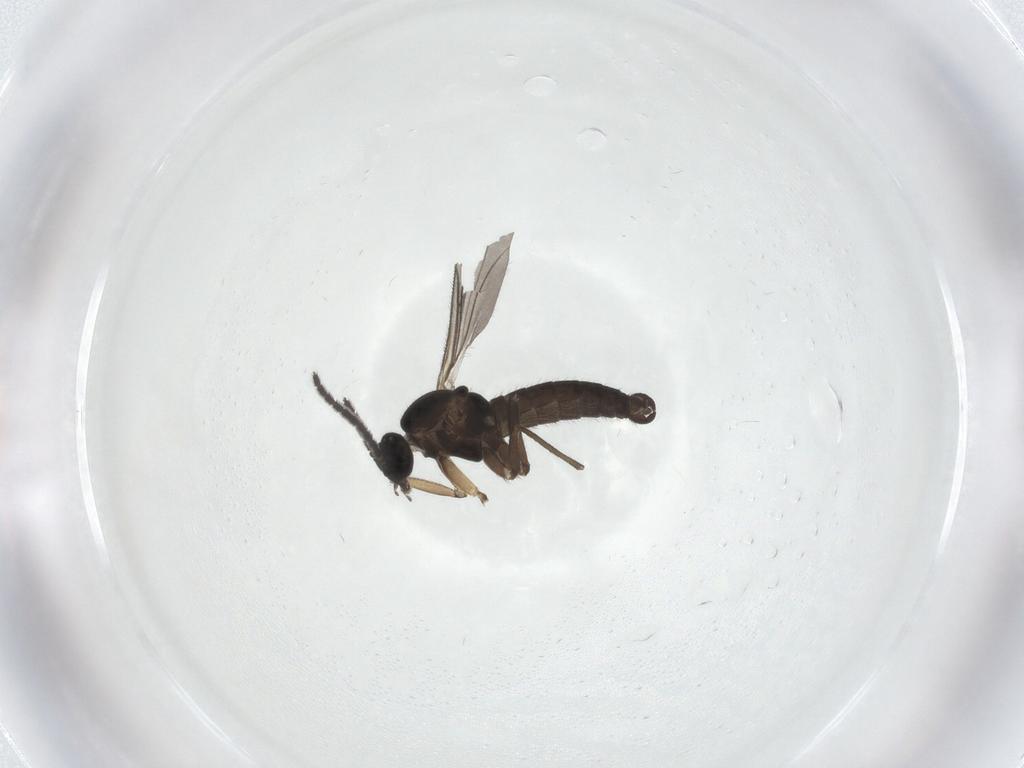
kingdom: Animalia
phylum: Arthropoda
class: Insecta
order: Diptera
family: Sciaridae
